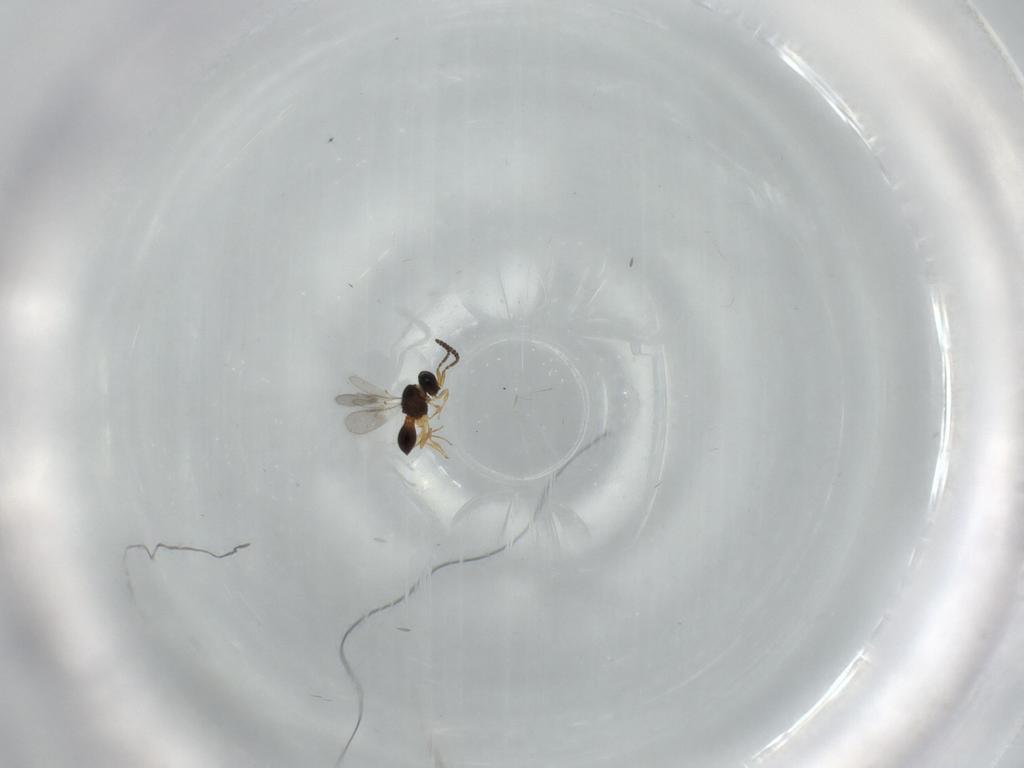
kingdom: Animalia
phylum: Arthropoda
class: Insecta
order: Hymenoptera
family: Scelionidae
